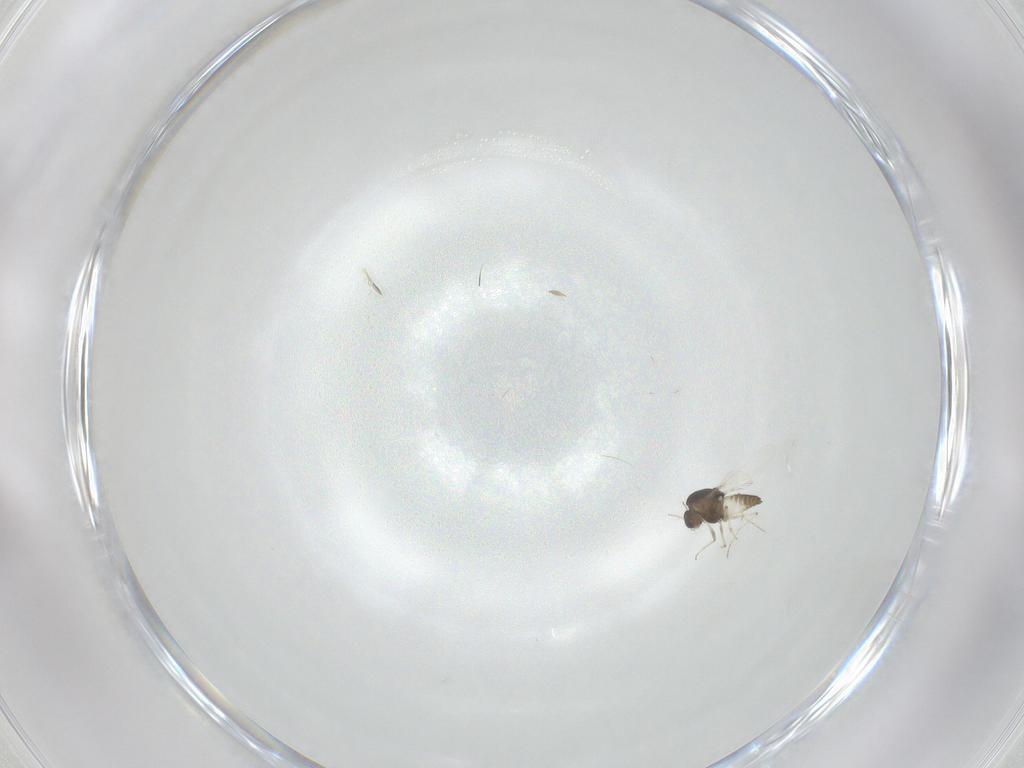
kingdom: Animalia
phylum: Arthropoda
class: Insecta
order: Diptera
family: Chironomidae
